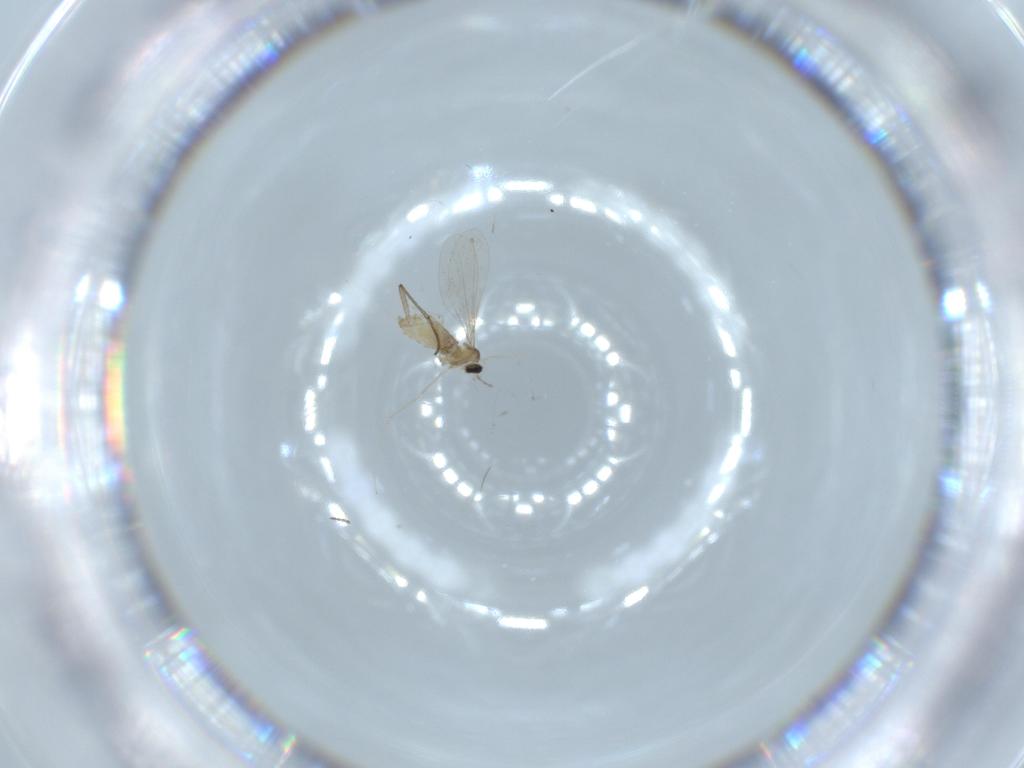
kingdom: Animalia
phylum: Arthropoda
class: Insecta
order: Diptera
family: Cecidomyiidae
